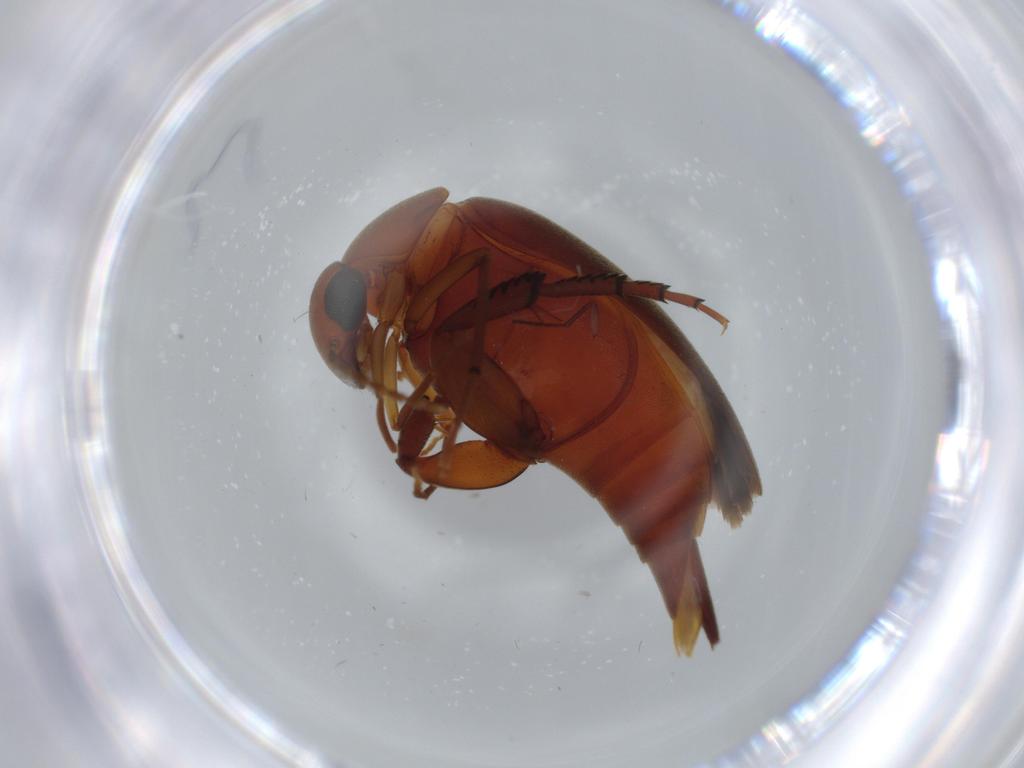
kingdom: Animalia
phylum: Arthropoda
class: Insecta
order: Coleoptera
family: Mordellidae
